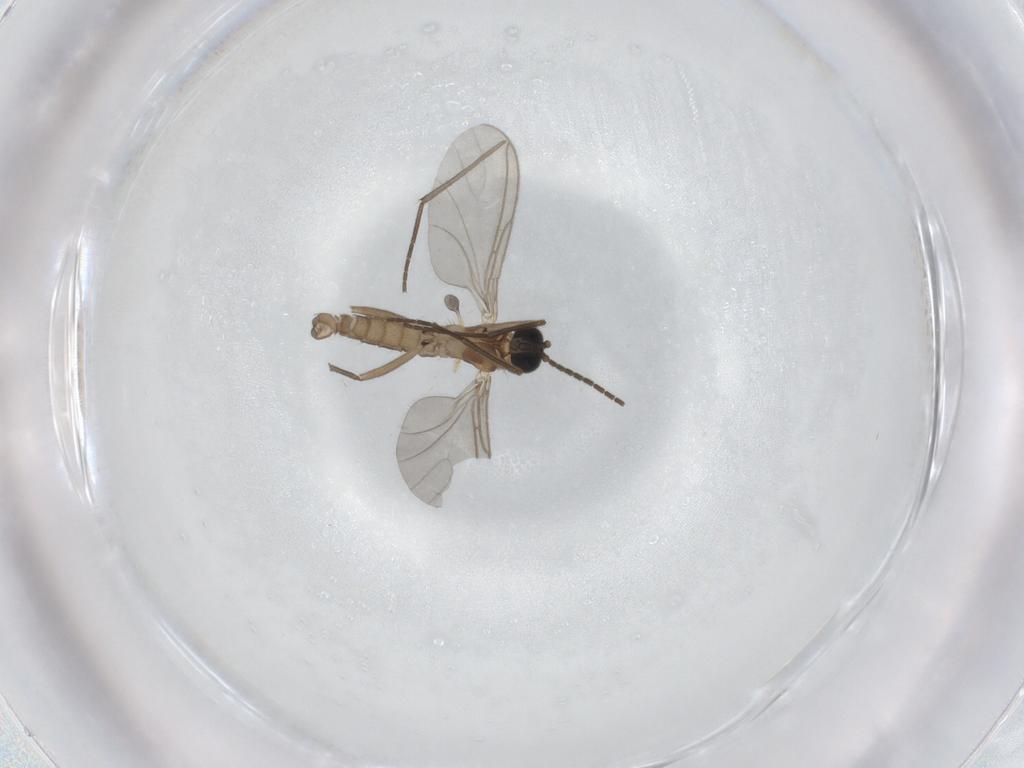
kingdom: Animalia
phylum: Arthropoda
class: Insecta
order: Diptera
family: Sciaridae
